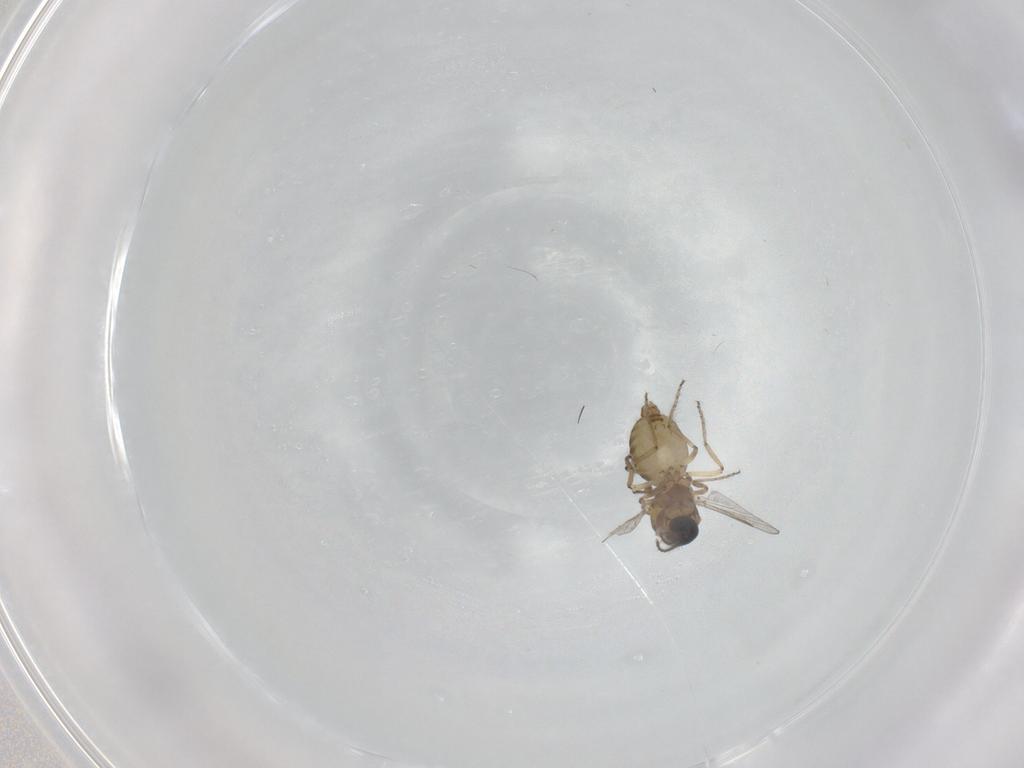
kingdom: Animalia
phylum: Arthropoda
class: Insecta
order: Diptera
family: Ceratopogonidae
